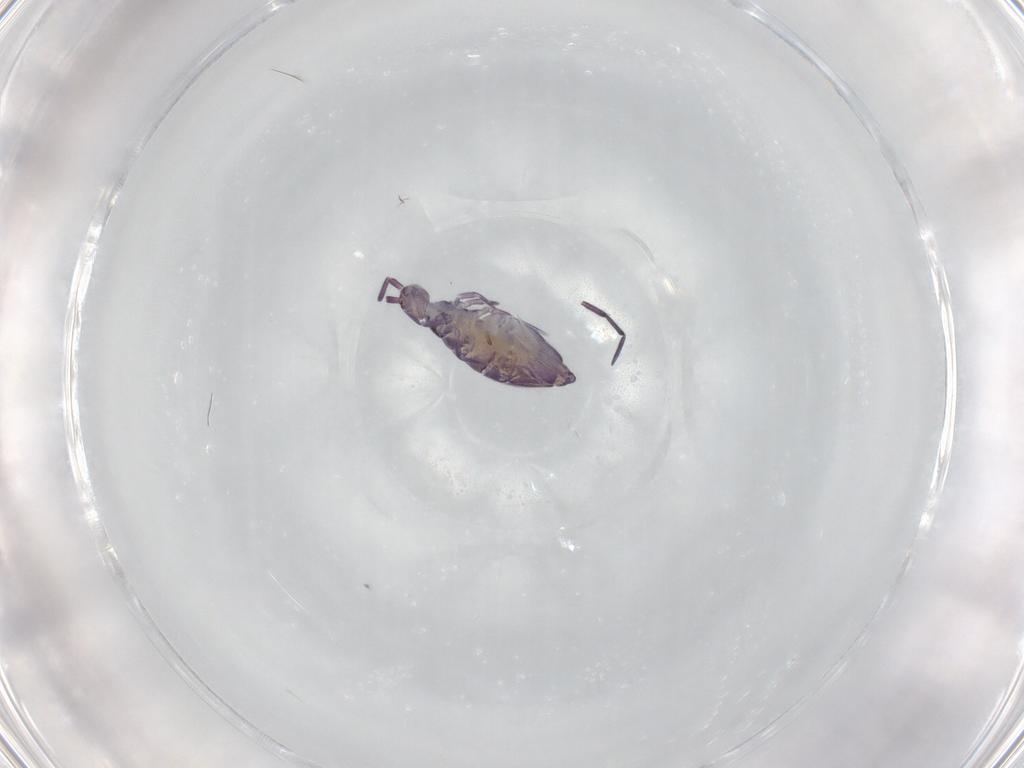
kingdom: Animalia
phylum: Arthropoda
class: Collembola
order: Entomobryomorpha
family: Entomobryidae
